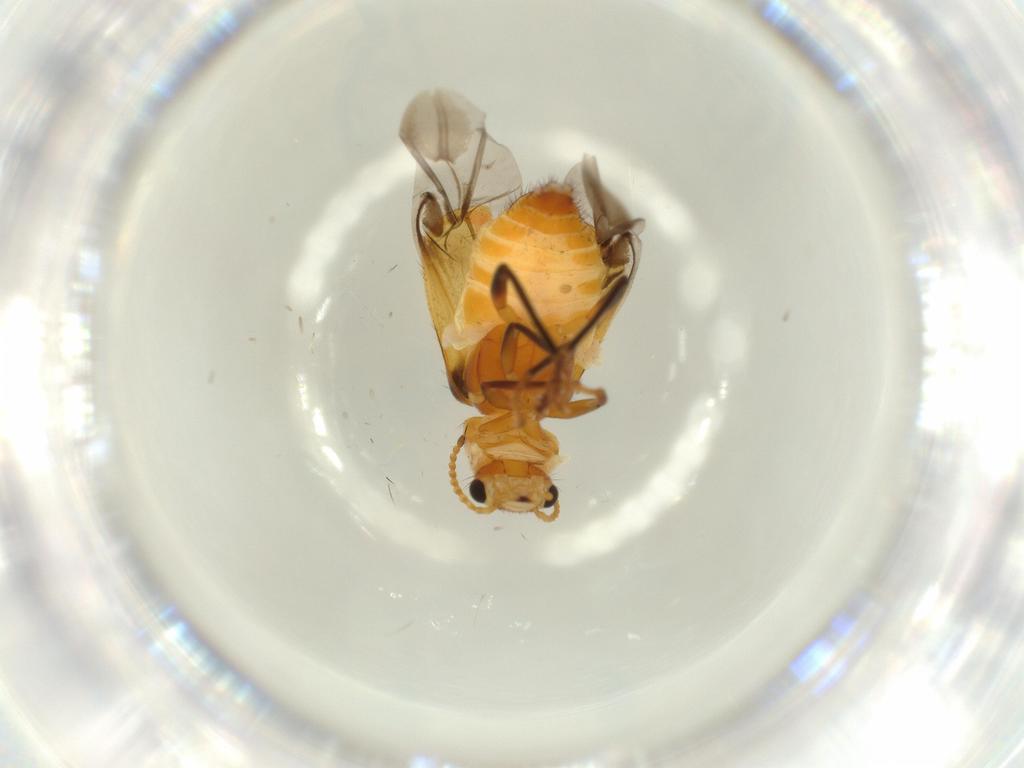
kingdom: Animalia
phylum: Arthropoda
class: Insecta
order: Coleoptera
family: Melyridae
